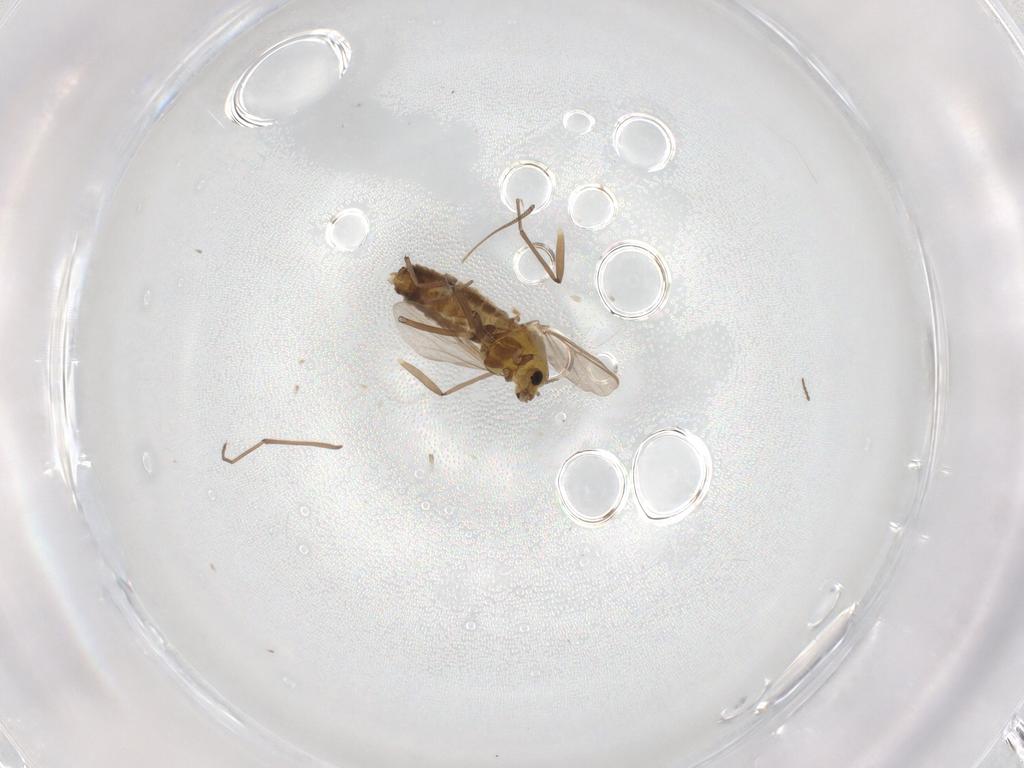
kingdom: Animalia
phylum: Arthropoda
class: Insecta
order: Diptera
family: Chironomidae
